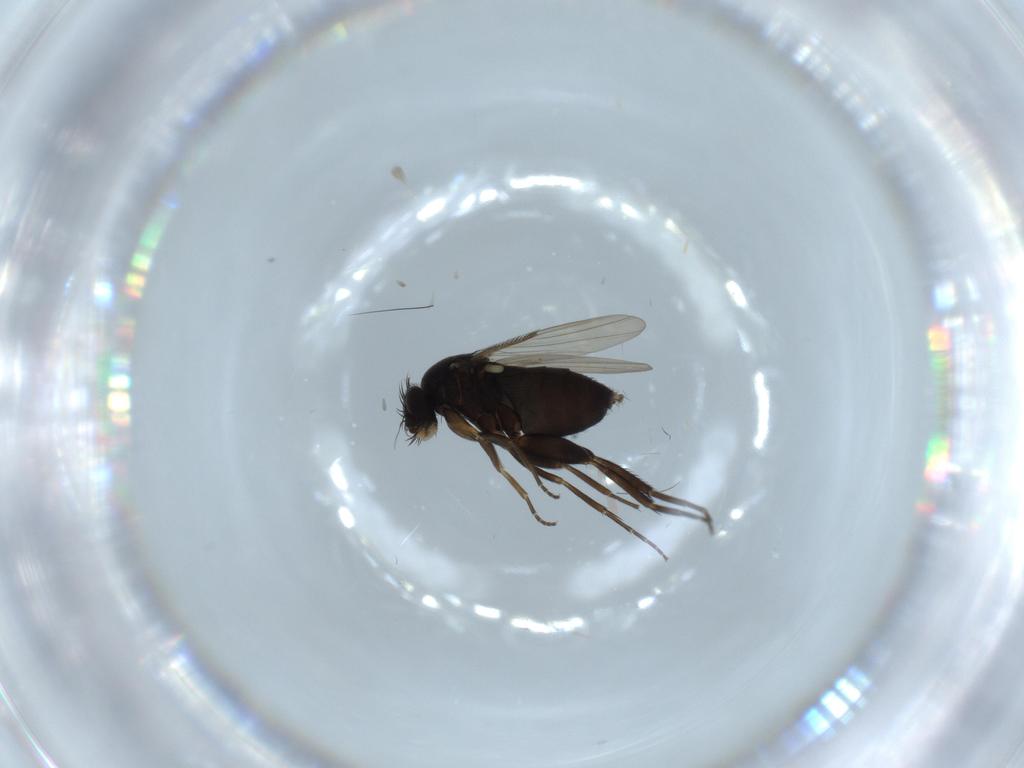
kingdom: Animalia
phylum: Arthropoda
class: Insecta
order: Diptera
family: Phoridae
